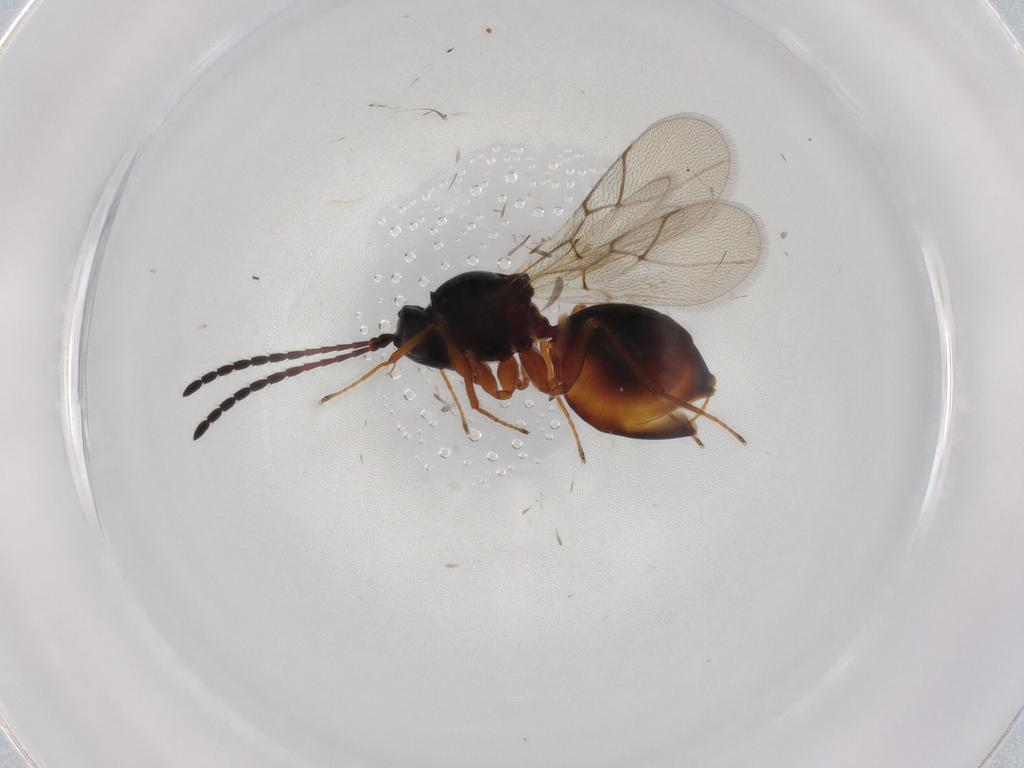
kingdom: Animalia
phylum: Arthropoda
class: Insecta
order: Hymenoptera
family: Figitidae
